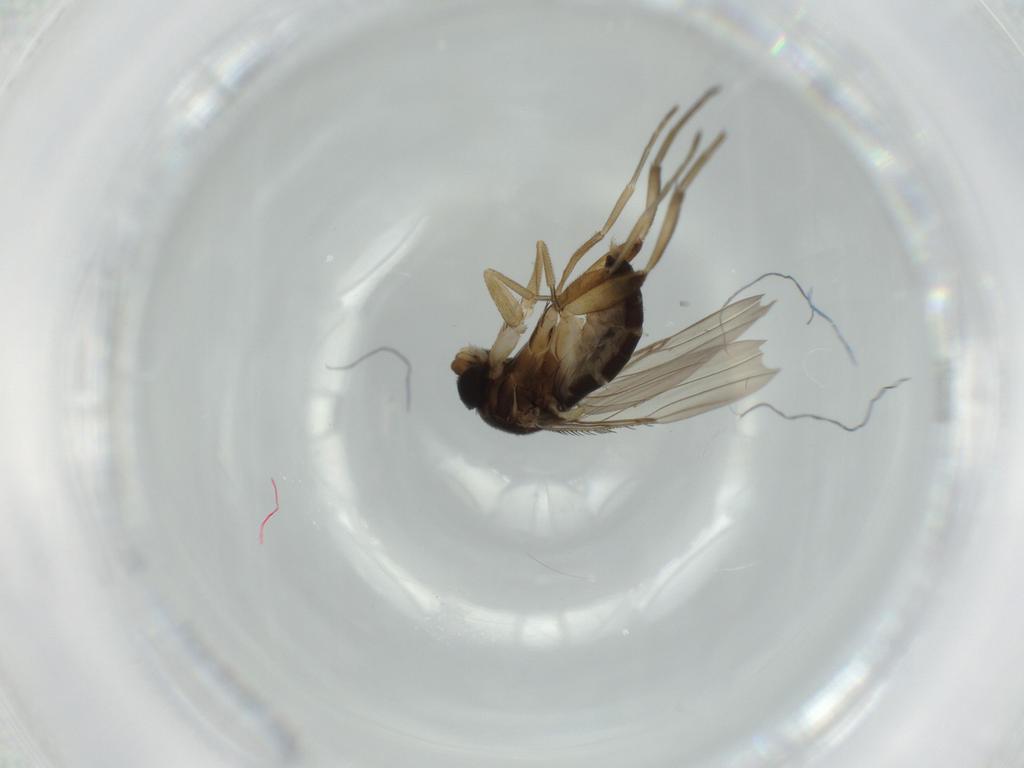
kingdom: Animalia
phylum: Arthropoda
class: Insecta
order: Diptera
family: Phoridae
